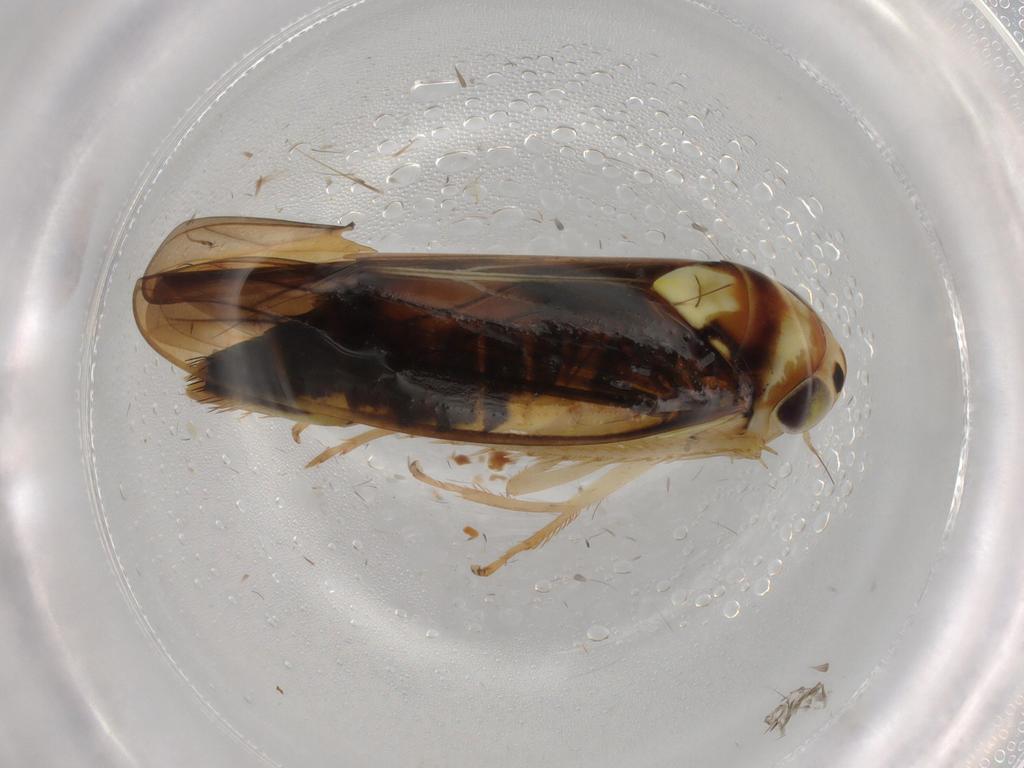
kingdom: Animalia
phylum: Arthropoda
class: Insecta
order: Hemiptera
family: Cicadellidae
